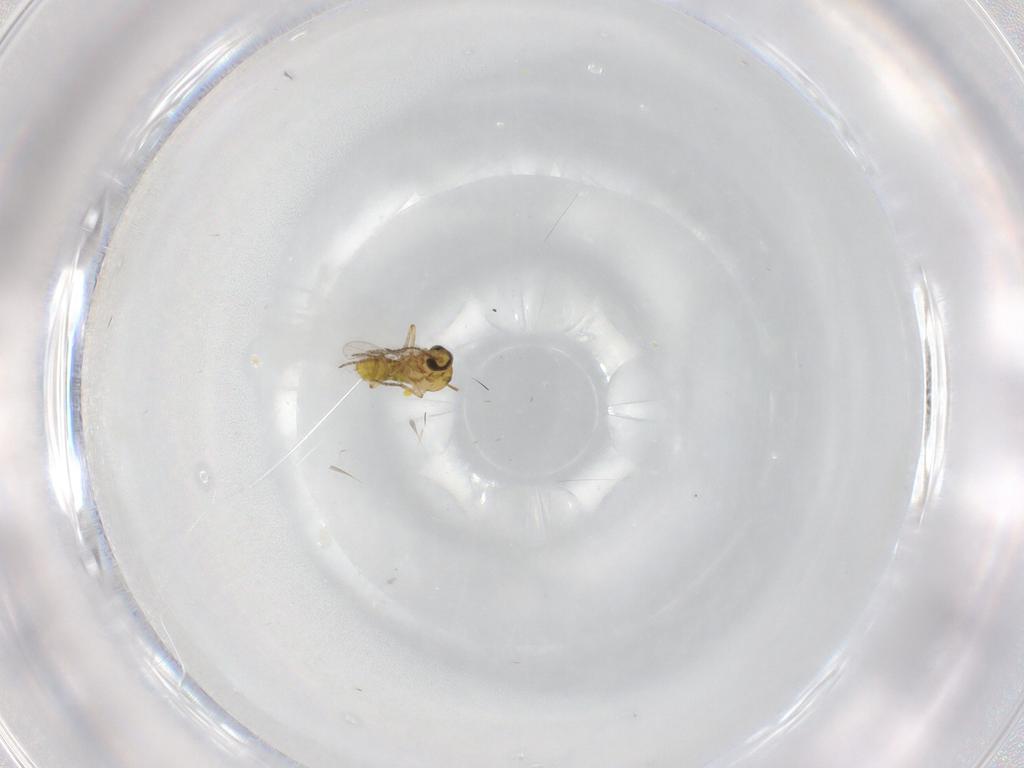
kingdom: Animalia
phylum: Arthropoda
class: Insecta
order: Diptera
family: Ceratopogonidae
